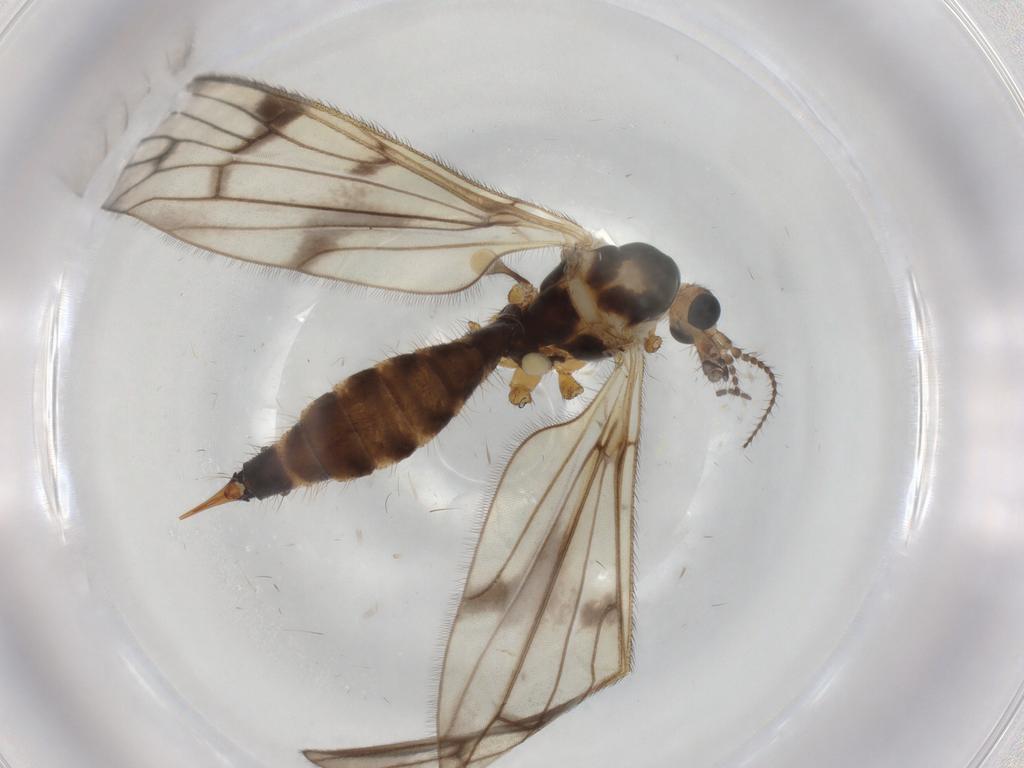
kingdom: Animalia
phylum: Arthropoda
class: Insecta
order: Diptera
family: Limoniidae
